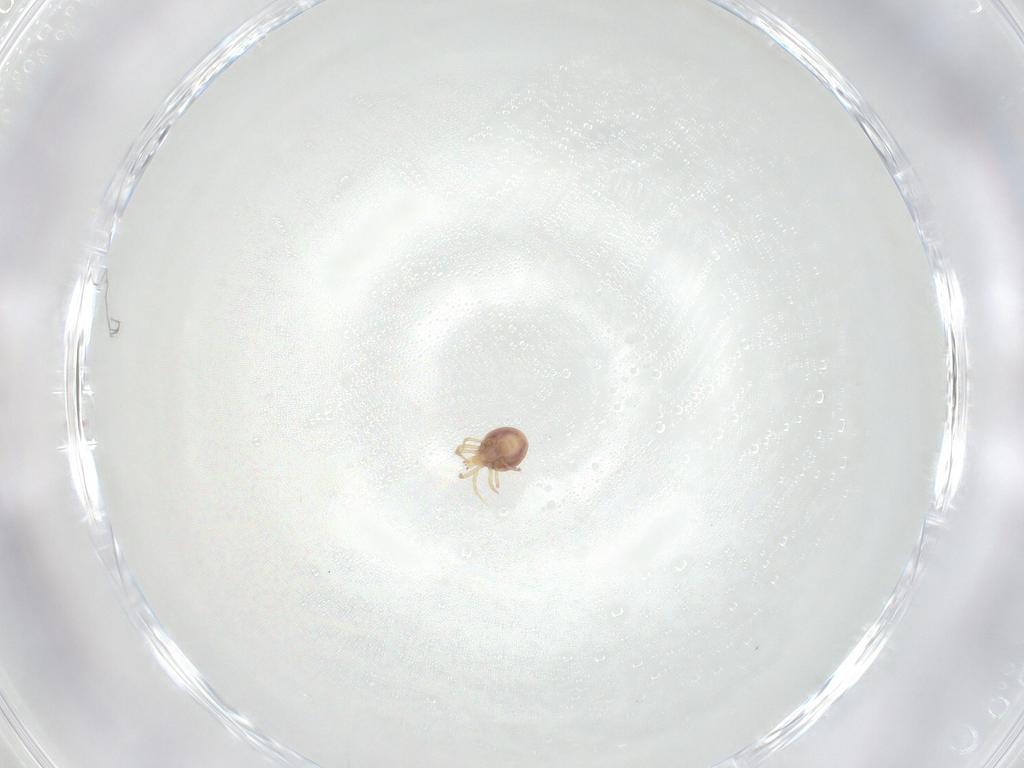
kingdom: Animalia
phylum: Arthropoda
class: Arachnida
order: Mesostigmata
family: Phytoseiidae
